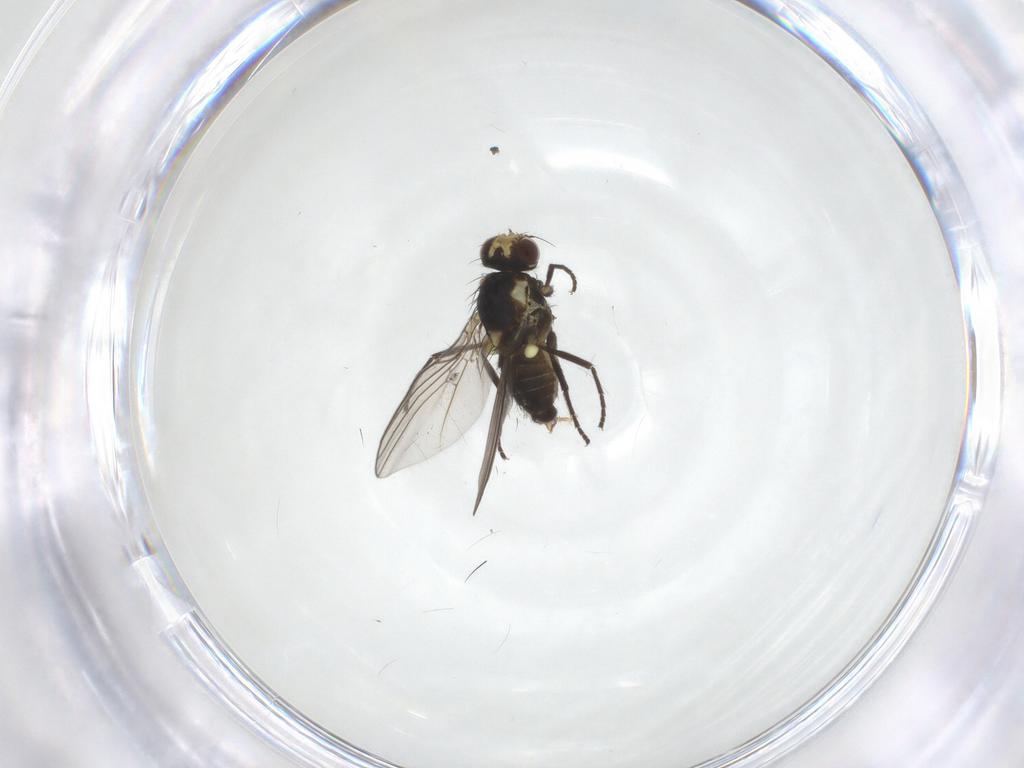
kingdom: Animalia
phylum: Arthropoda
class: Insecta
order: Diptera
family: Agromyzidae
